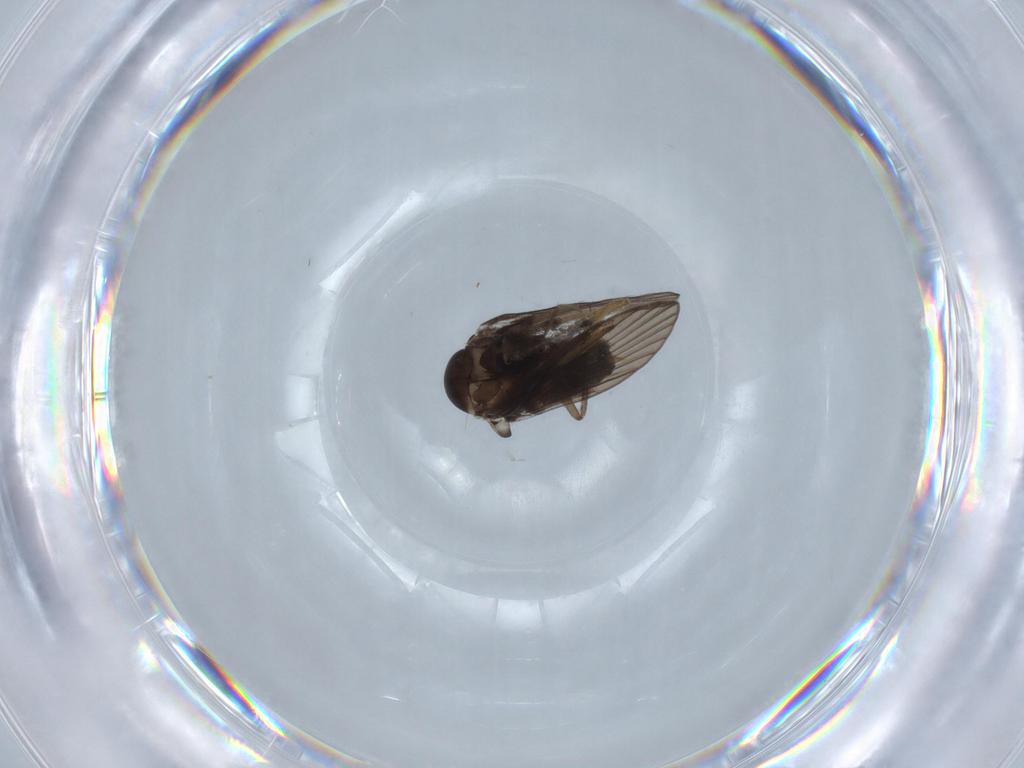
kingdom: Animalia
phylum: Arthropoda
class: Insecta
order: Diptera
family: Psychodidae
